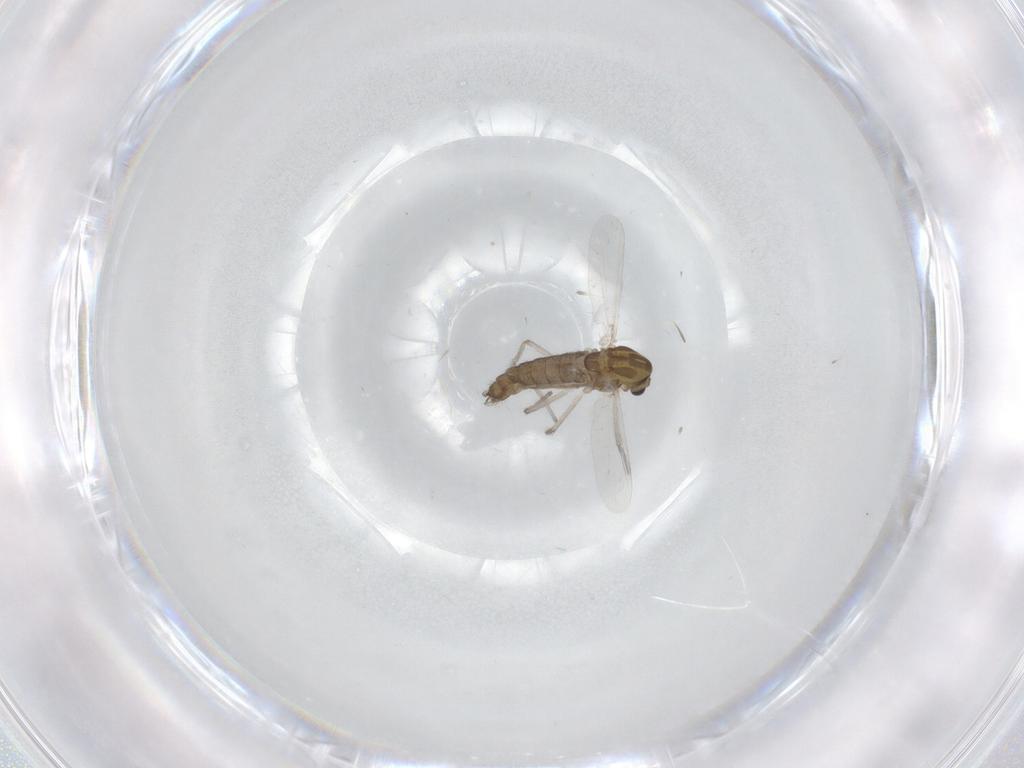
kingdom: Animalia
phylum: Arthropoda
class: Insecta
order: Diptera
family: Chironomidae
